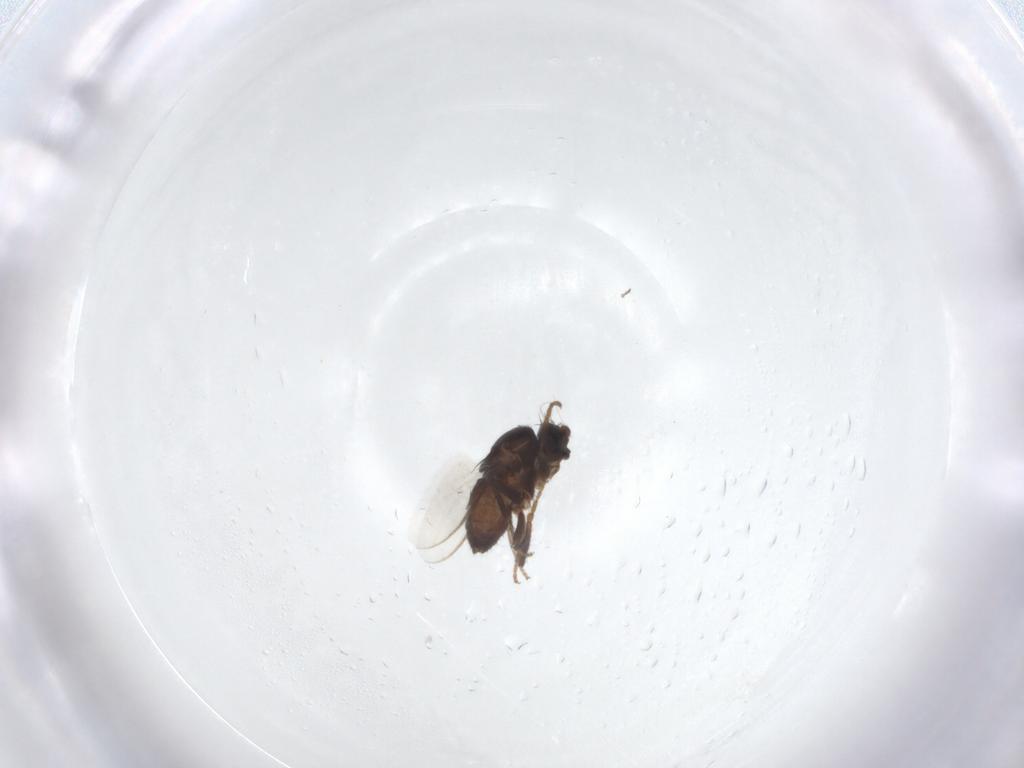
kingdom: Animalia
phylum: Arthropoda
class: Insecta
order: Diptera
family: Sphaeroceridae
